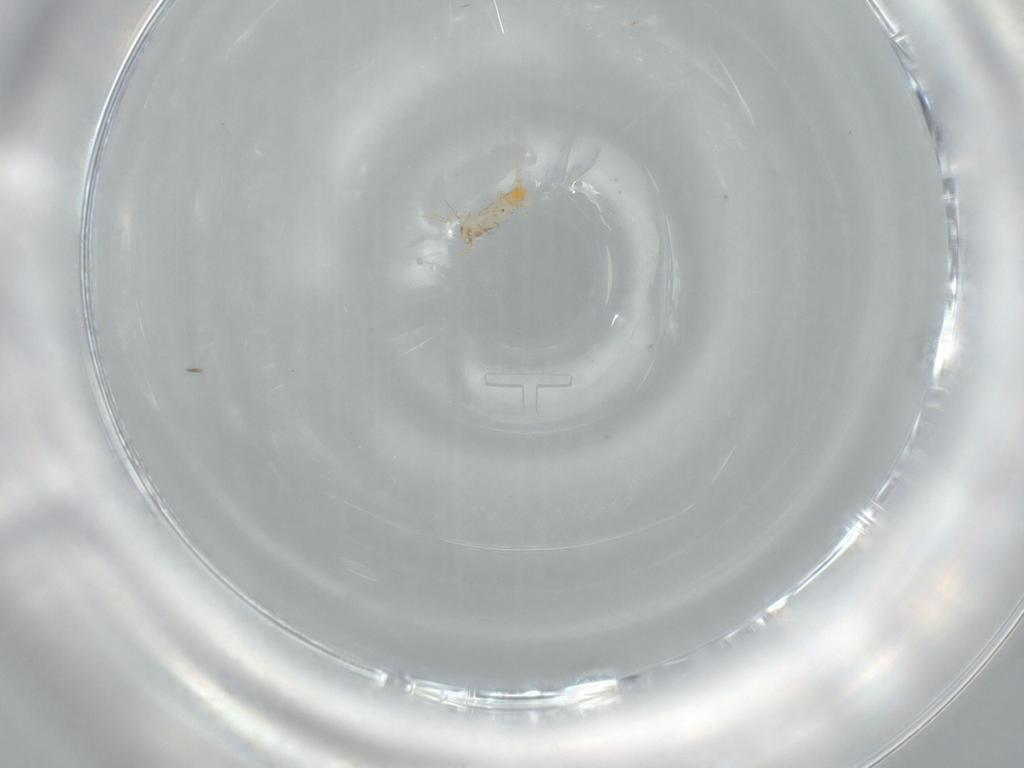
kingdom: Animalia
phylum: Arthropoda
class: Insecta
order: Hemiptera
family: Delphacidae
